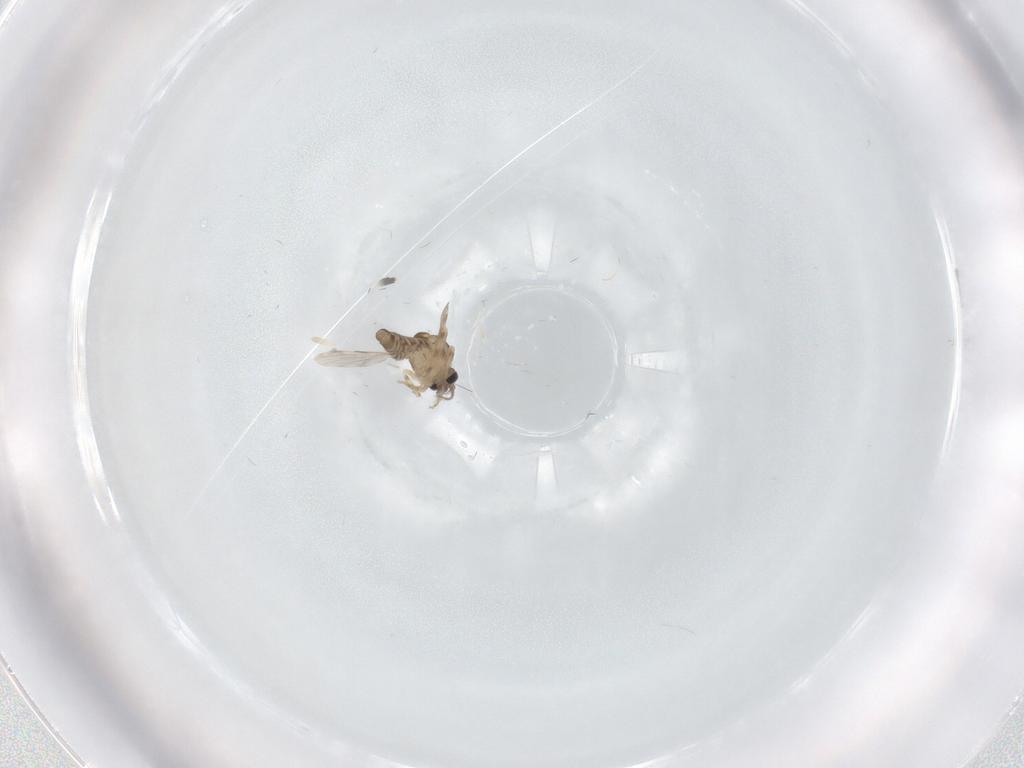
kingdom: Animalia
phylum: Arthropoda
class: Insecta
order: Diptera
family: Ceratopogonidae
